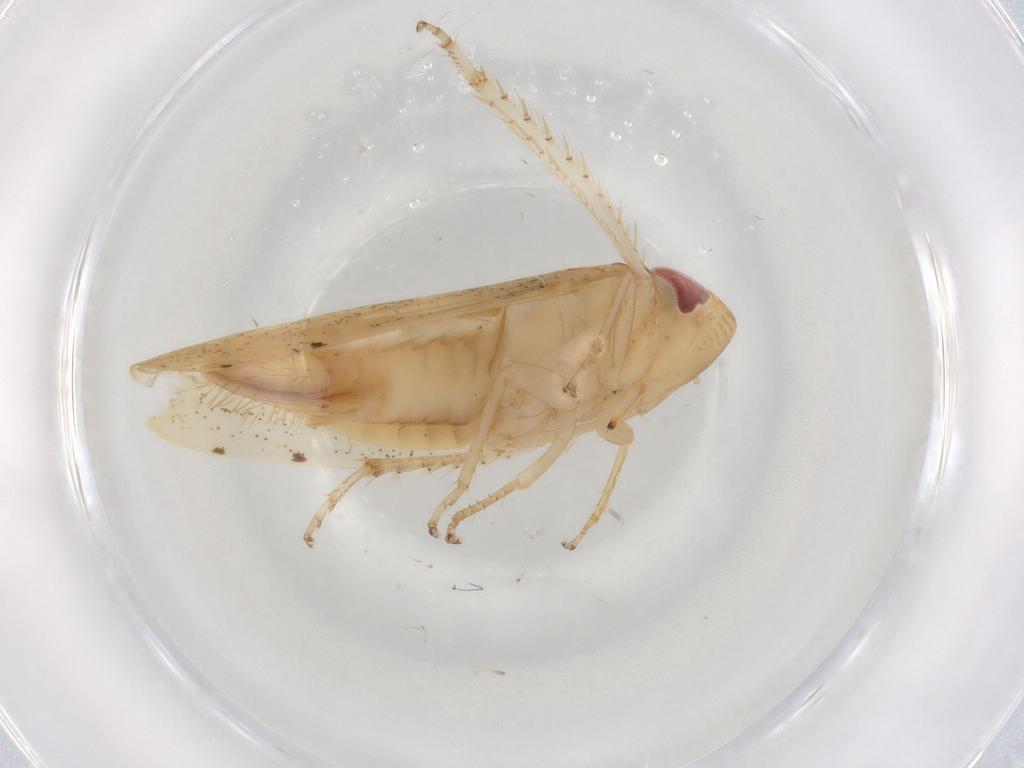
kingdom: Animalia
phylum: Arthropoda
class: Insecta
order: Hemiptera
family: Cicadellidae
